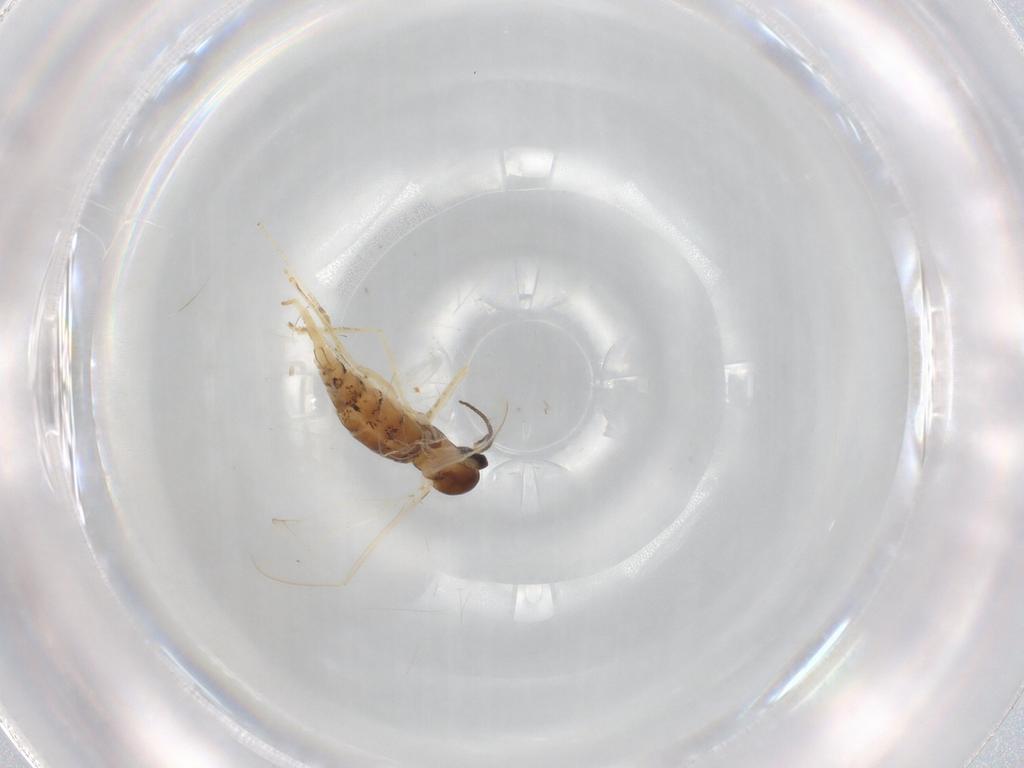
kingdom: Animalia
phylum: Arthropoda
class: Insecta
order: Diptera
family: Cecidomyiidae
